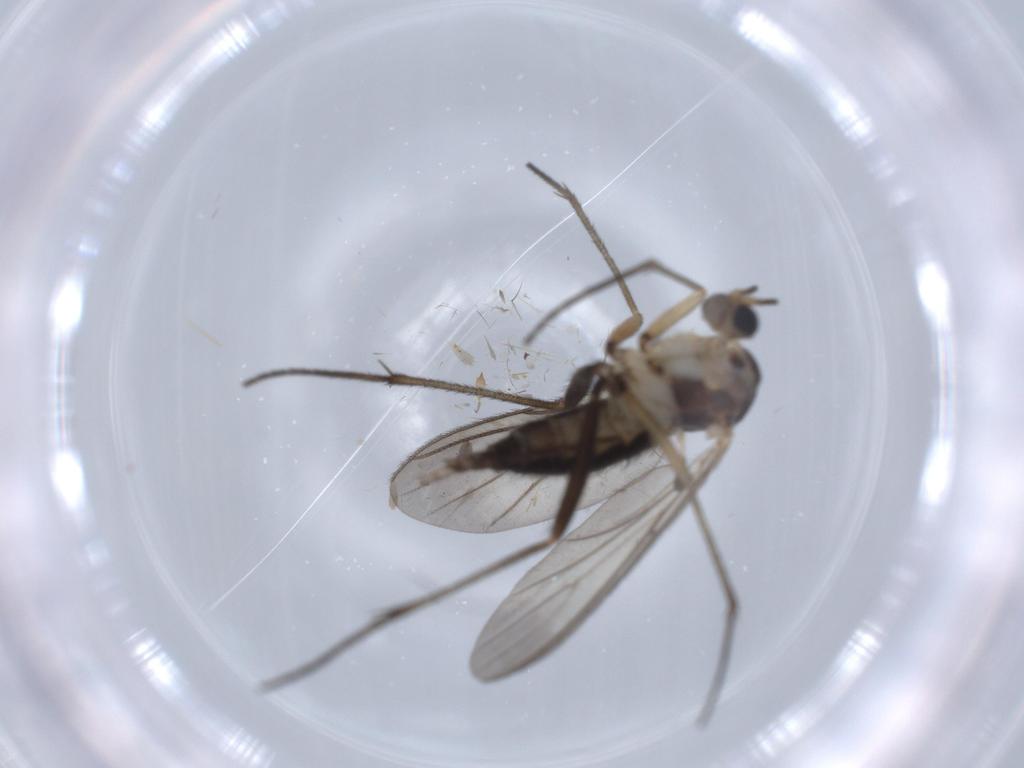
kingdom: Animalia
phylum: Arthropoda
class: Insecta
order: Diptera
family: Sciaridae
